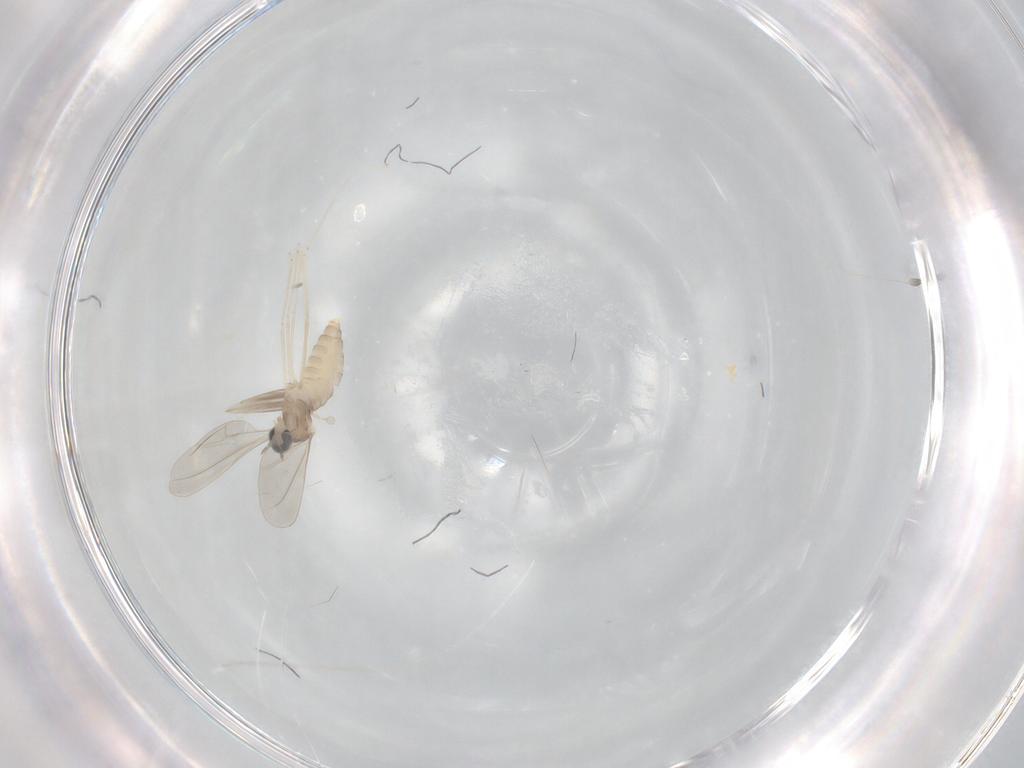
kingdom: Animalia
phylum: Arthropoda
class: Insecta
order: Diptera
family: Cecidomyiidae
